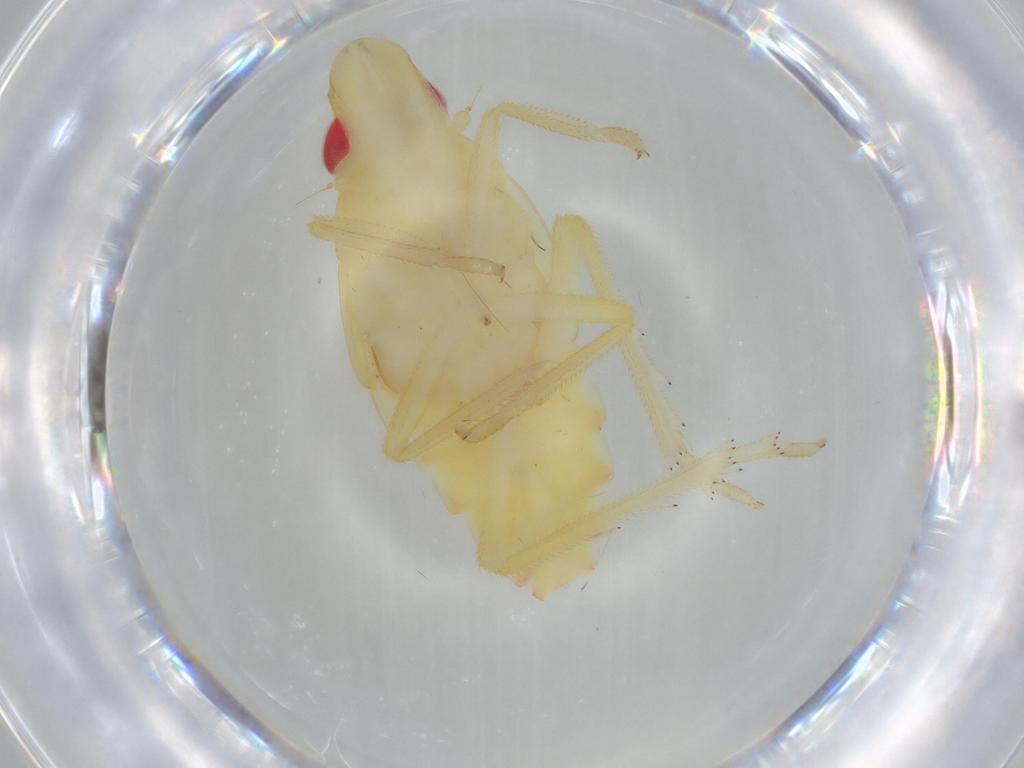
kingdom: Animalia
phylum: Arthropoda
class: Insecta
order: Hemiptera
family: Tropiduchidae
